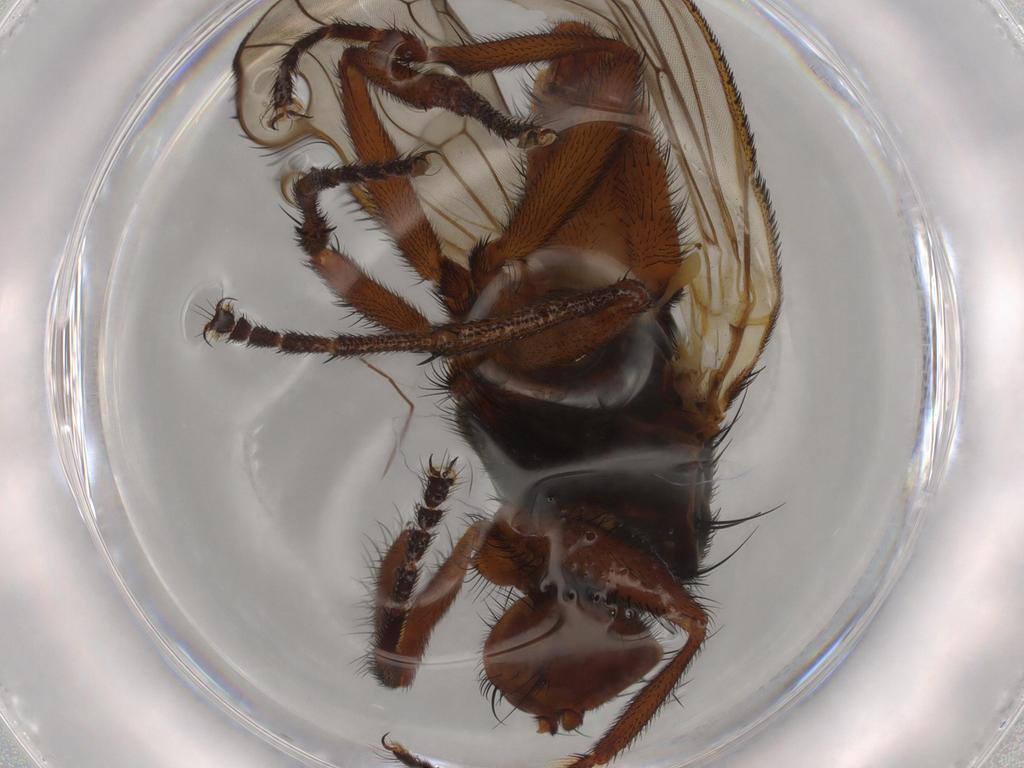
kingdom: Animalia
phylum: Arthropoda
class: Insecta
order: Diptera
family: Heleomyzidae
